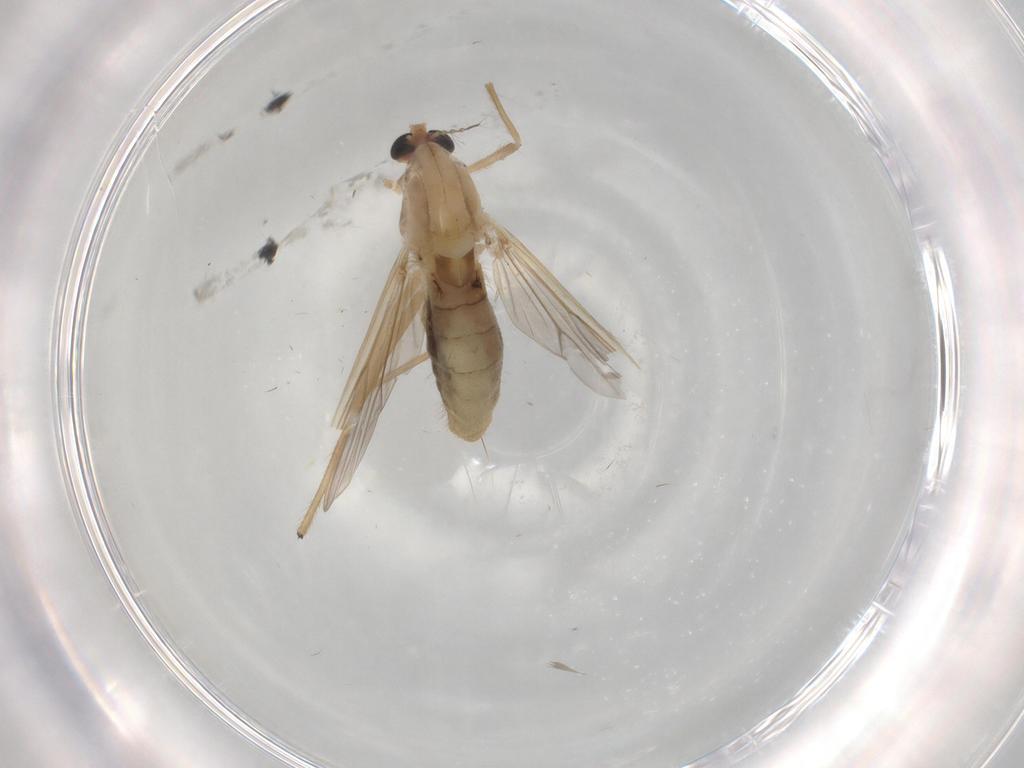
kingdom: Animalia
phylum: Arthropoda
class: Insecta
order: Diptera
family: Chironomidae
